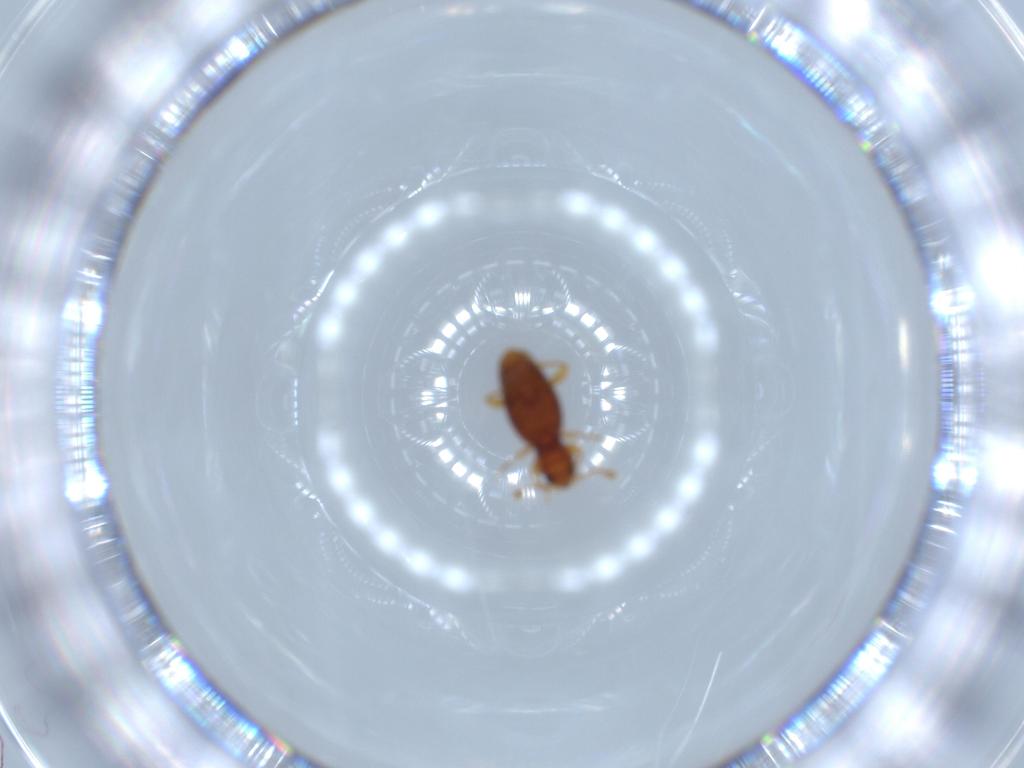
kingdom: Animalia
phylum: Arthropoda
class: Insecta
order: Coleoptera
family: Endomychidae
